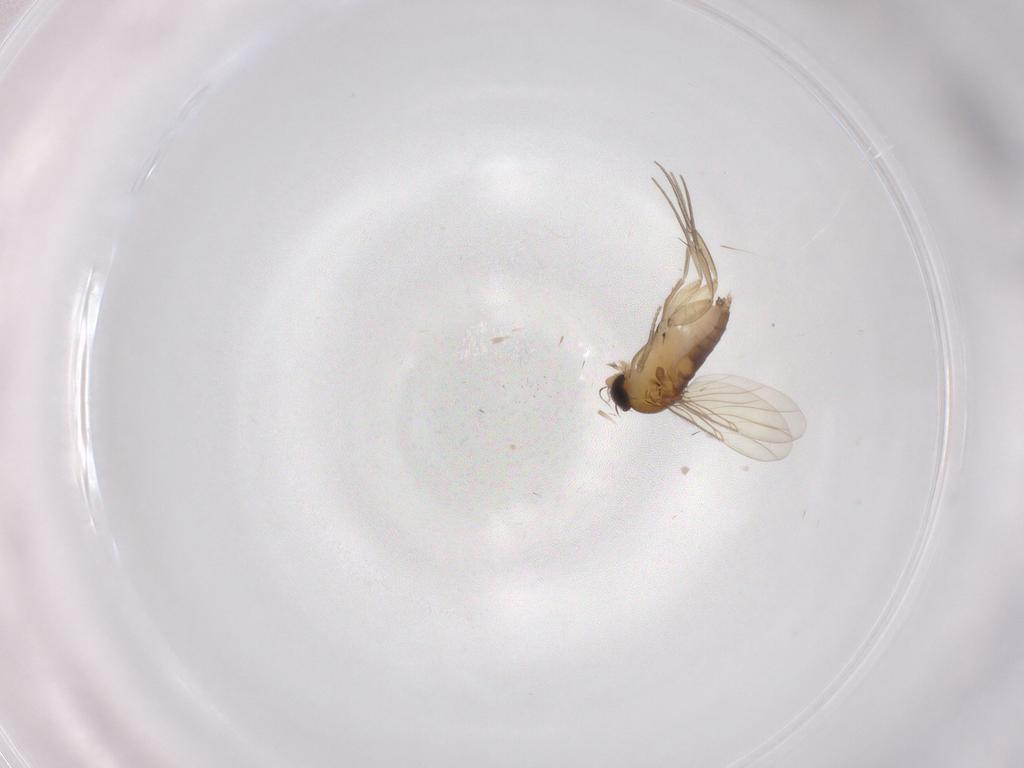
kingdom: Animalia
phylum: Arthropoda
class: Insecta
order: Diptera
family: Phoridae
